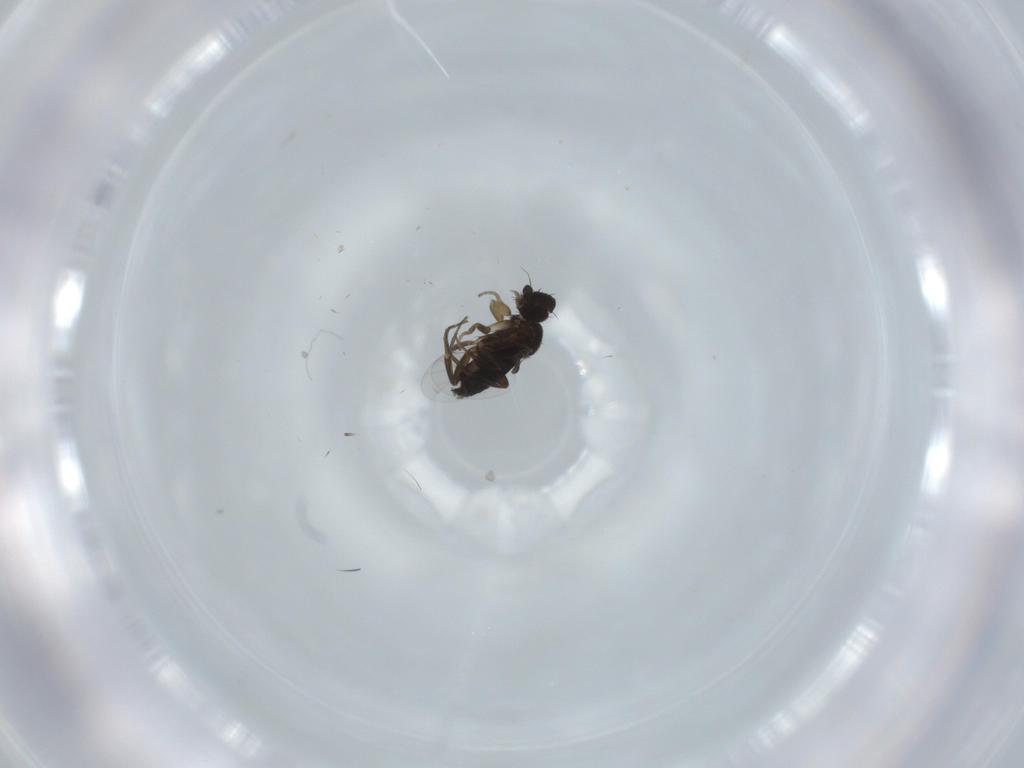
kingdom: Animalia
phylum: Arthropoda
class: Insecta
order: Diptera
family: Phoridae
